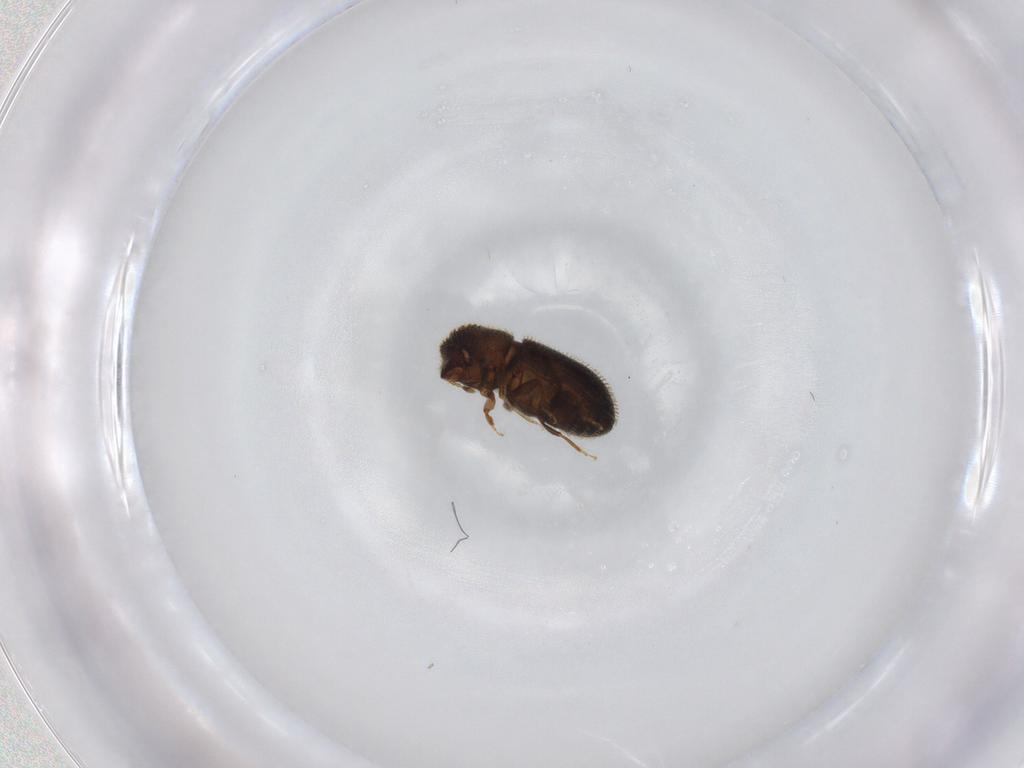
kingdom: Animalia
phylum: Arthropoda
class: Insecta
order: Coleoptera
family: Curculionidae
